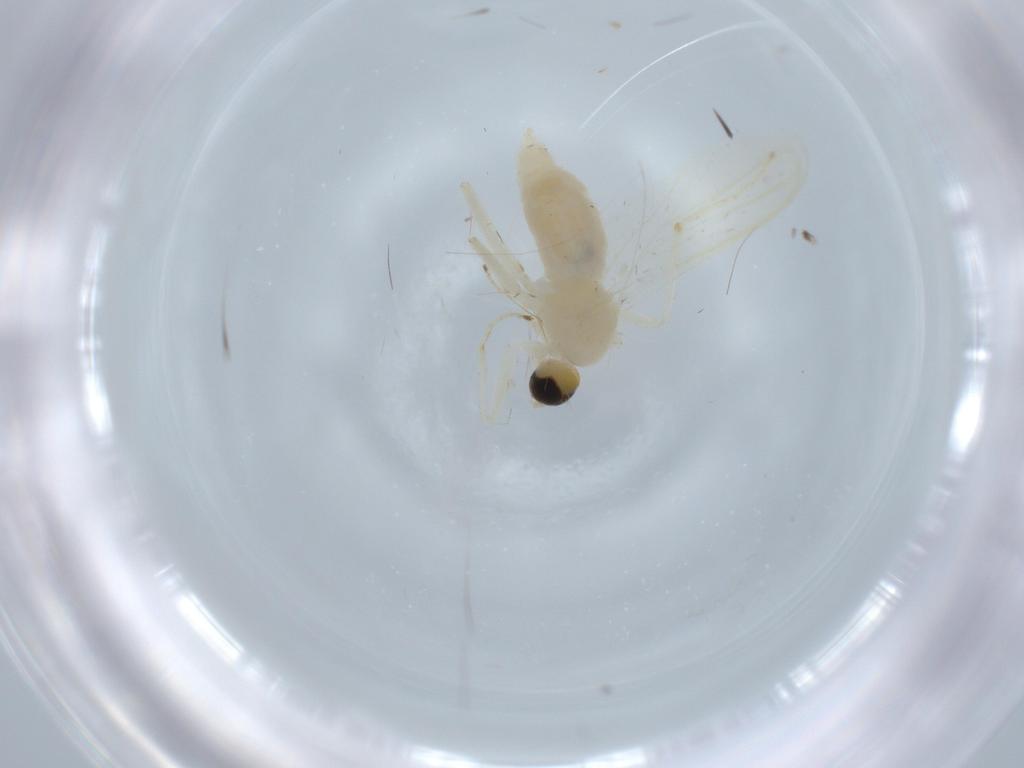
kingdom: Animalia
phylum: Arthropoda
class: Insecta
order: Diptera
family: Hybotidae
